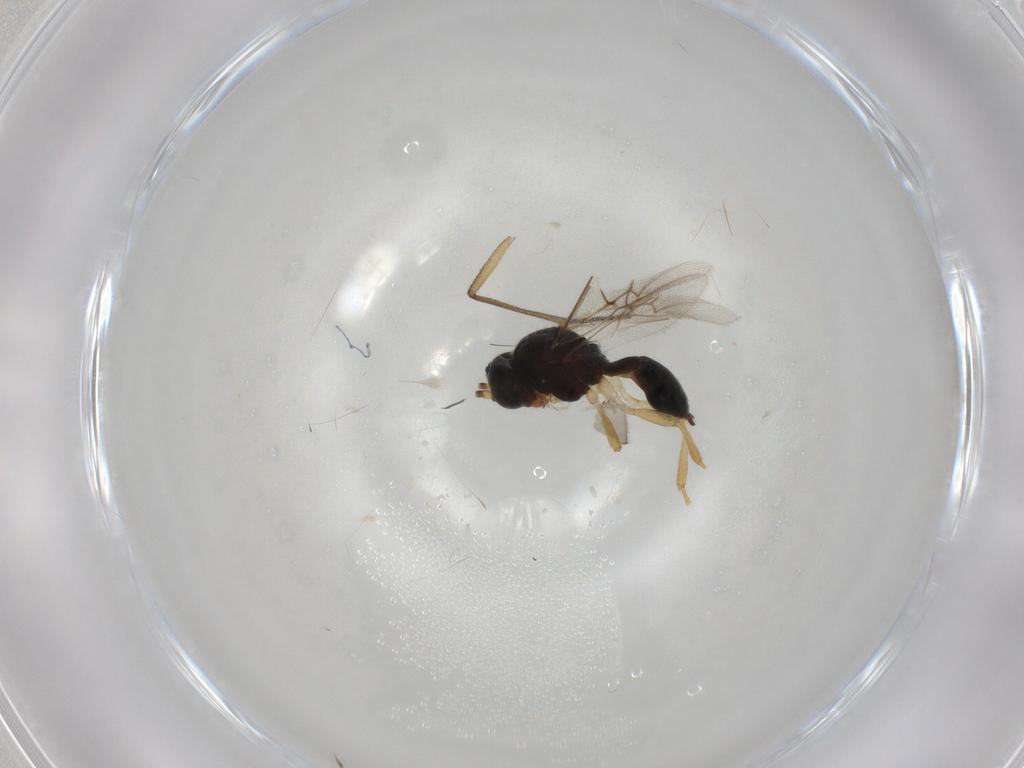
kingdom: Animalia
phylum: Arthropoda
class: Insecta
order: Hymenoptera
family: Braconidae
